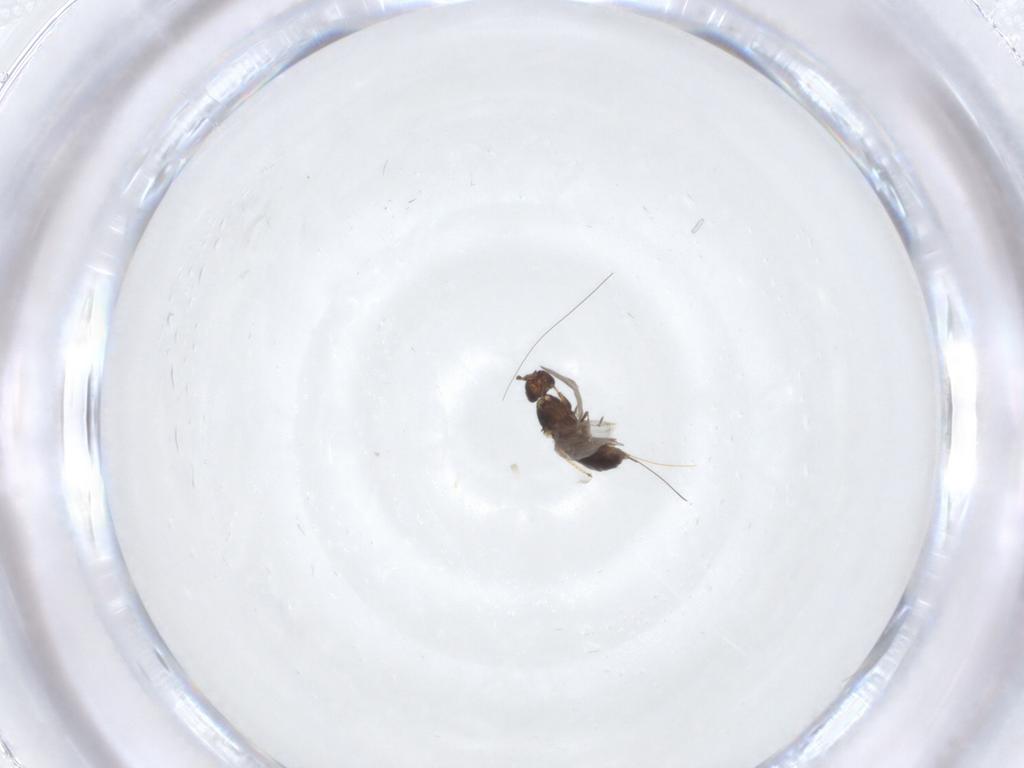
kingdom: Animalia
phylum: Arthropoda
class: Insecta
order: Hymenoptera
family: Agaonidae
